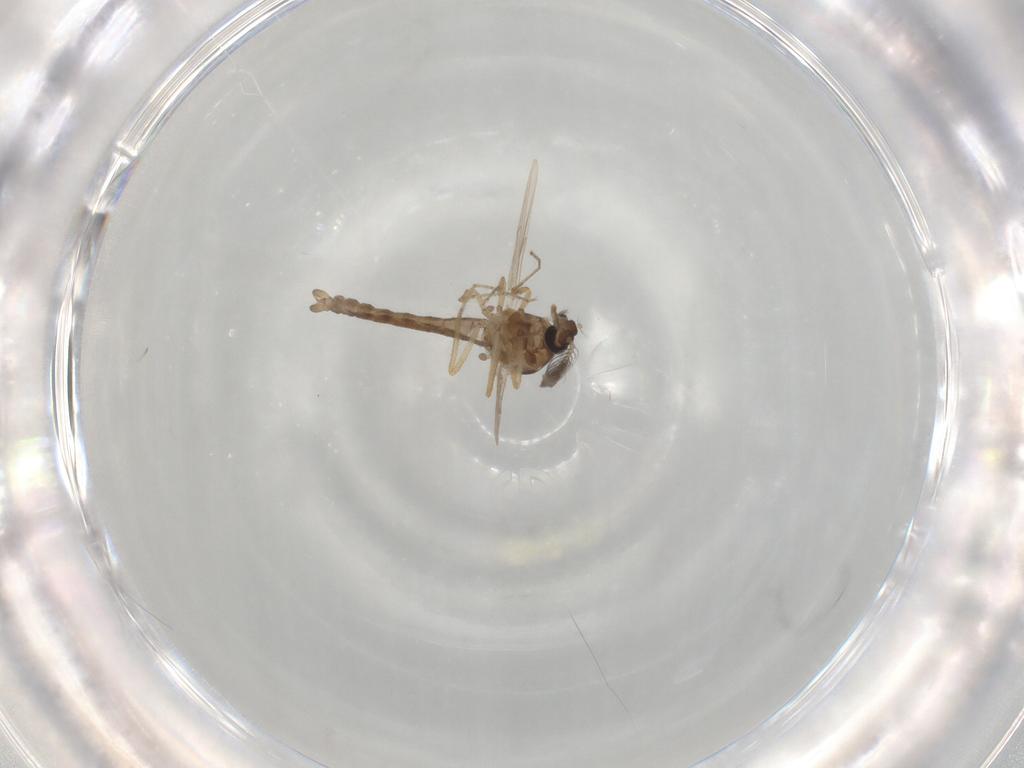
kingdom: Animalia
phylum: Arthropoda
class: Insecta
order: Diptera
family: Ceratopogonidae
